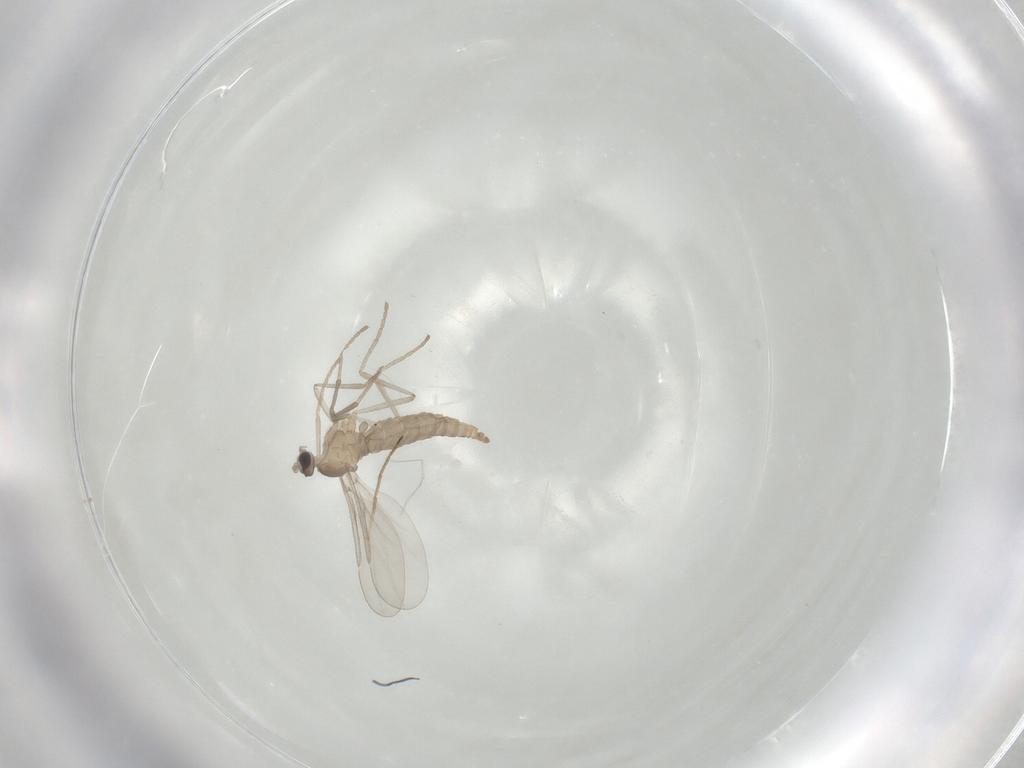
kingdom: Animalia
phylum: Arthropoda
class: Insecta
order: Diptera
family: Cecidomyiidae
